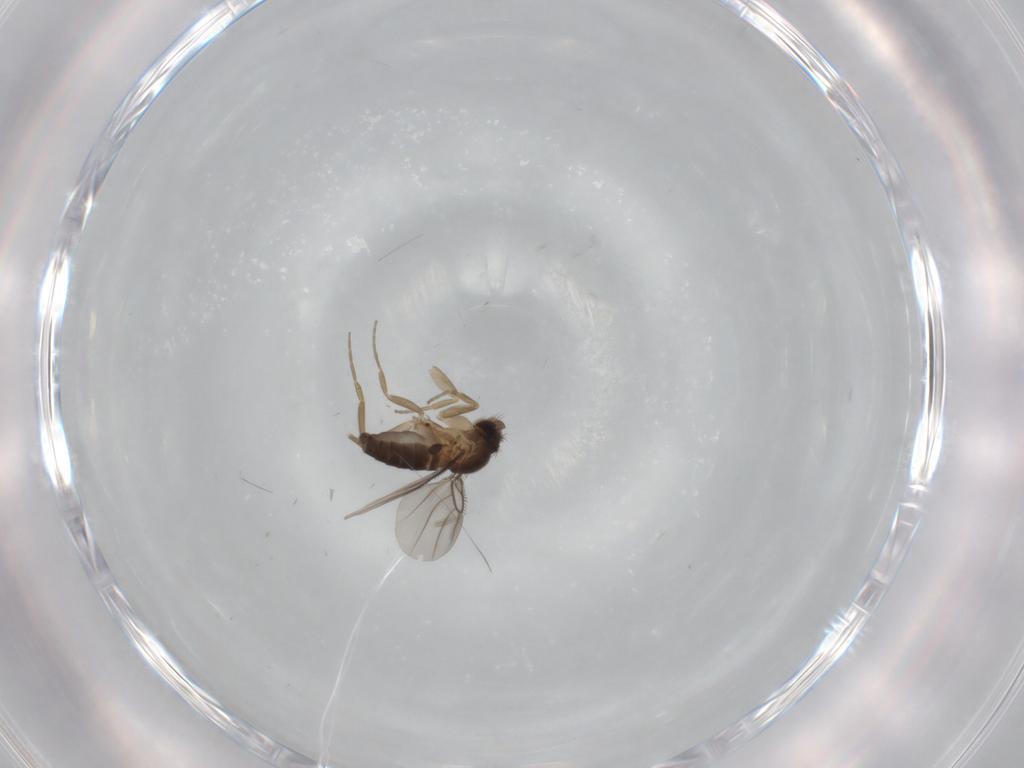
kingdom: Animalia
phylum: Arthropoda
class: Insecta
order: Diptera
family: Phoridae
